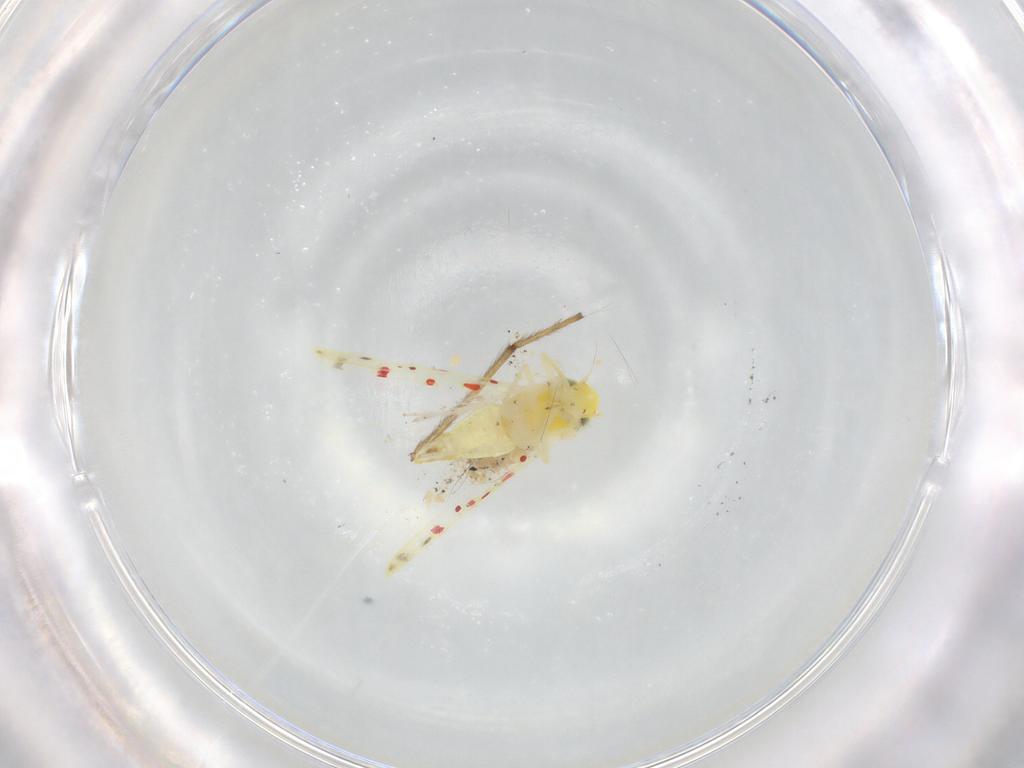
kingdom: Animalia
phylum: Arthropoda
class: Insecta
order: Diptera
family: Chironomidae
